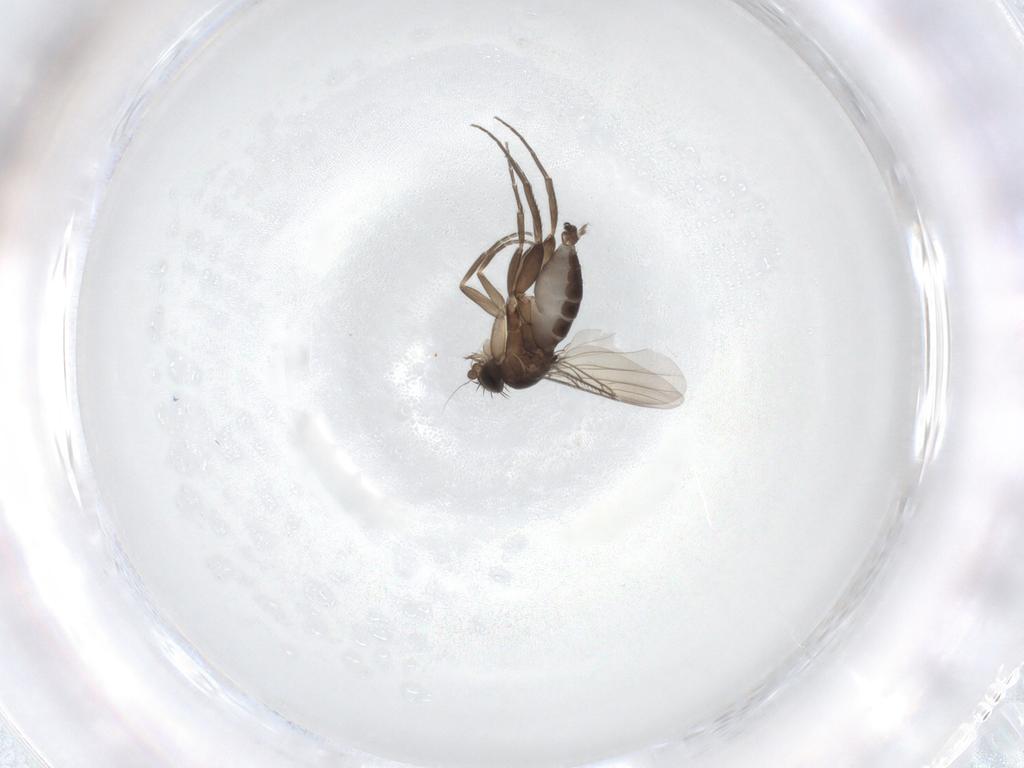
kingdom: Animalia
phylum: Arthropoda
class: Insecta
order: Diptera
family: Phoridae
